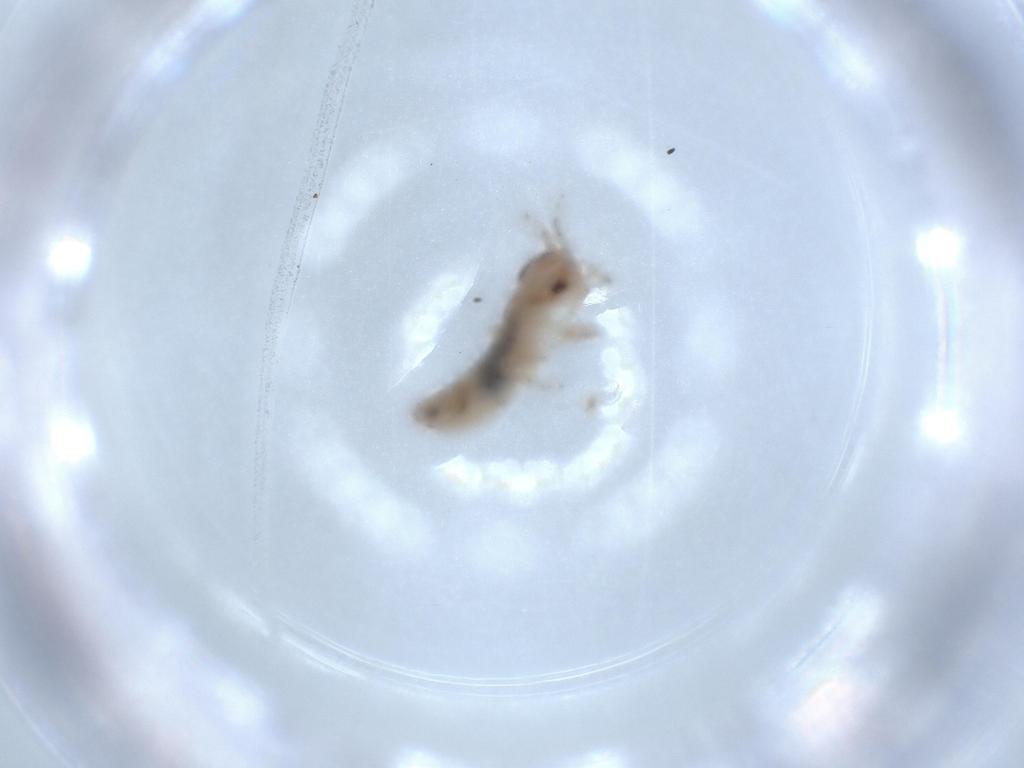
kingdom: Animalia
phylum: Arthropoda
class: Insecta
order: Orthoptera
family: Mogoplistidae
